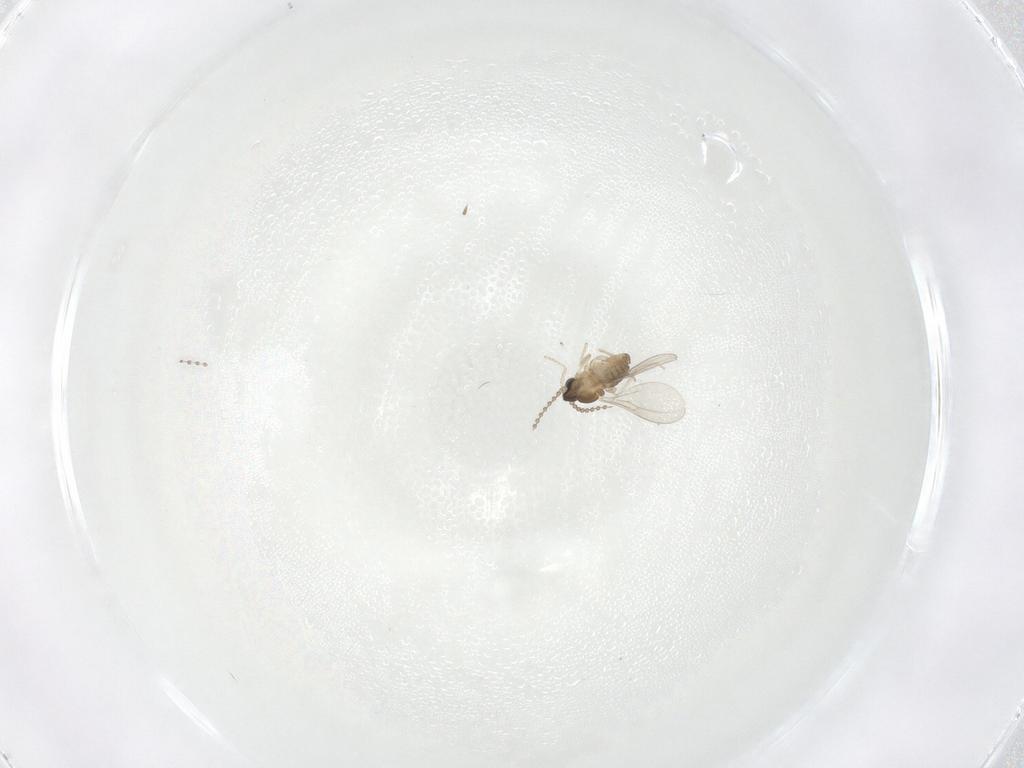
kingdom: Animalia
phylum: Arthropoda
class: Insecta
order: Diptera
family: Cecidomyiidae
